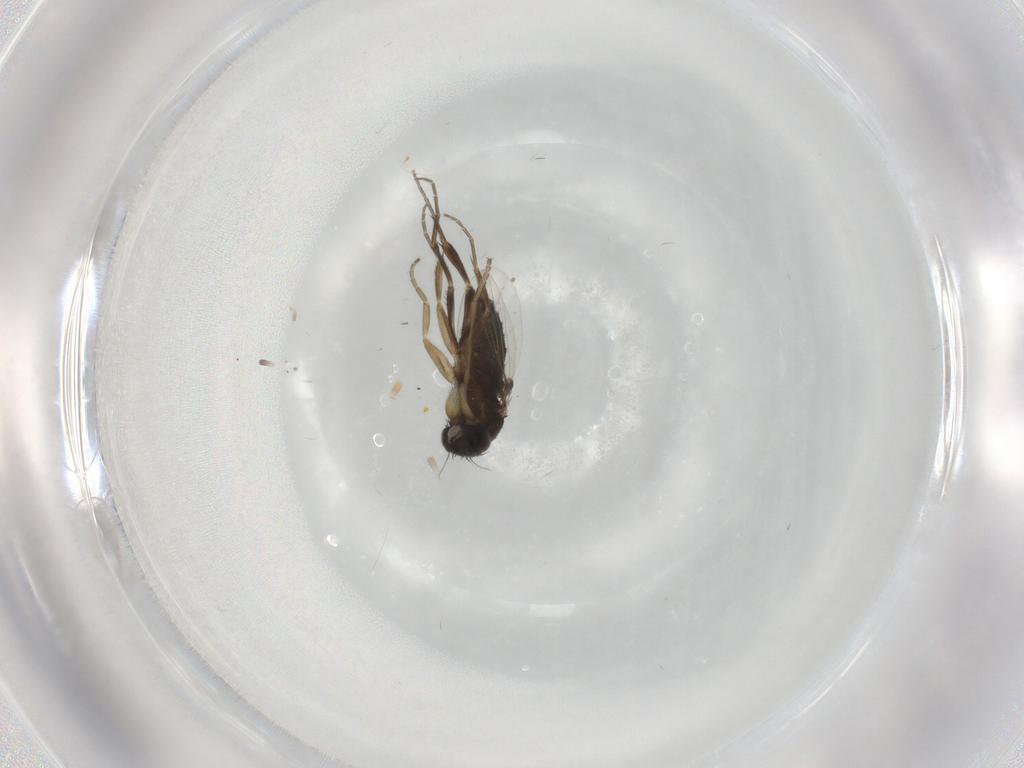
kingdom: Animalia
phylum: Arthropoda
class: Insecta
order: Diptera
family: Phoridae
